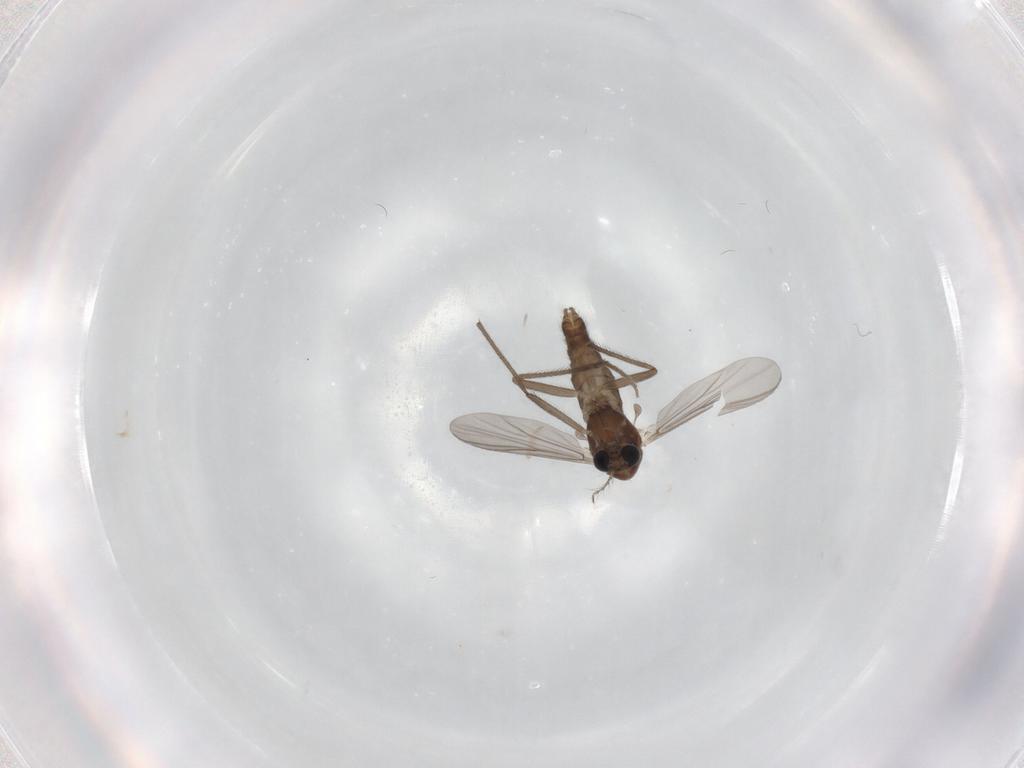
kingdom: Animalia
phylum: Arthropoda
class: Insecta
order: Diptera
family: Chironomidae
